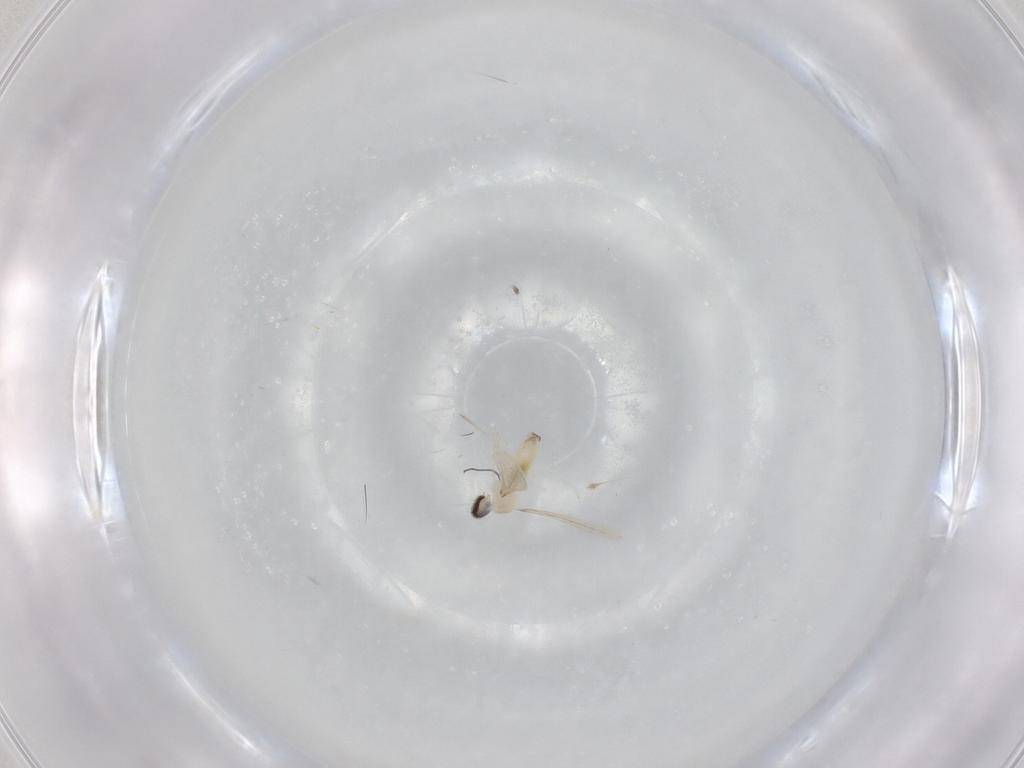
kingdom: Animalia
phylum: Arthropoda
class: Insecta
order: Diptera
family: Cecidomyiidae
